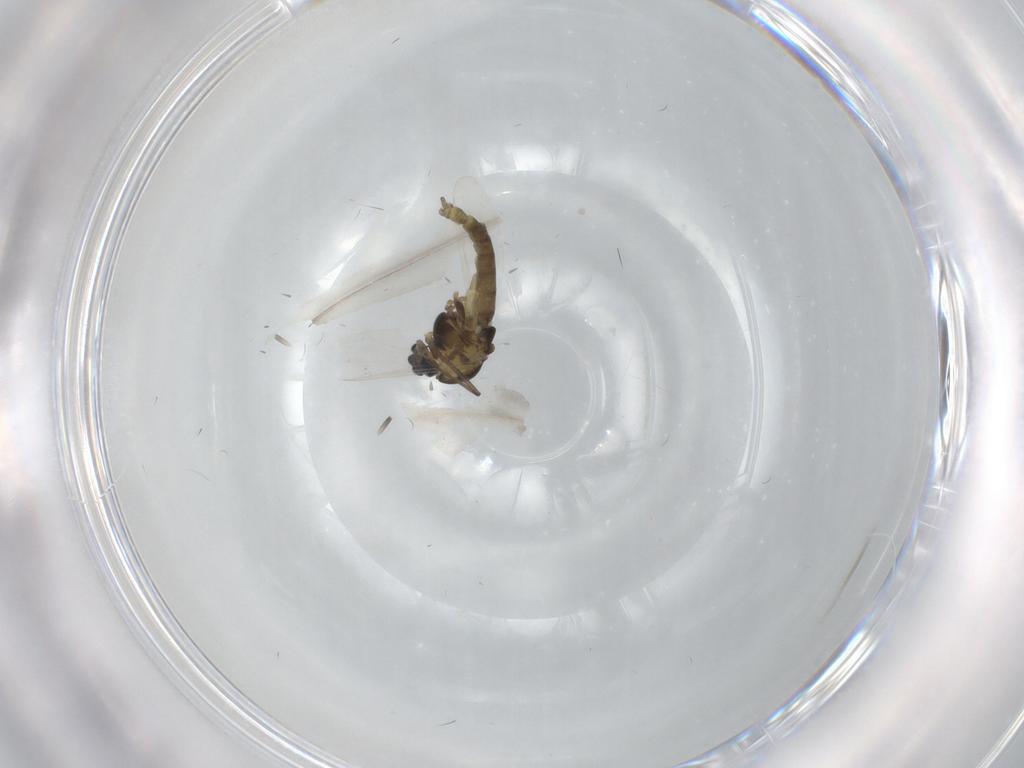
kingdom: Animalia
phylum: Arthropoda
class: Insecta
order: Diptera
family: Chironomidae
